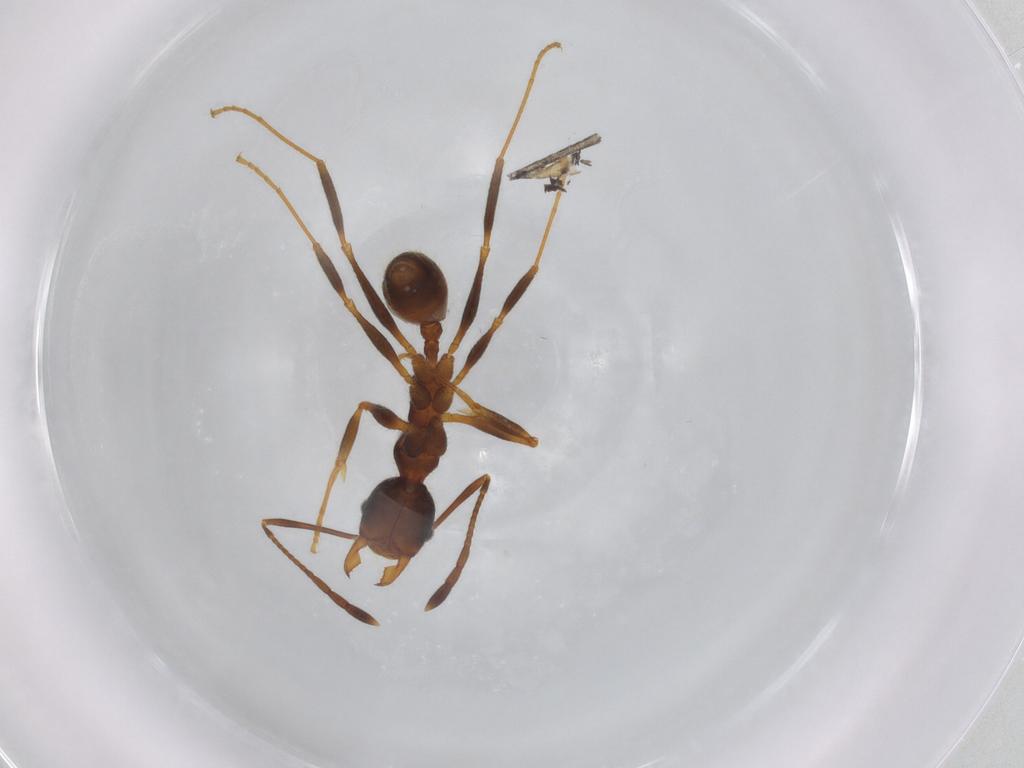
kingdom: Animalia
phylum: Arthropoda
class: Insecta
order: Hymenoptera
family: Formicidae
